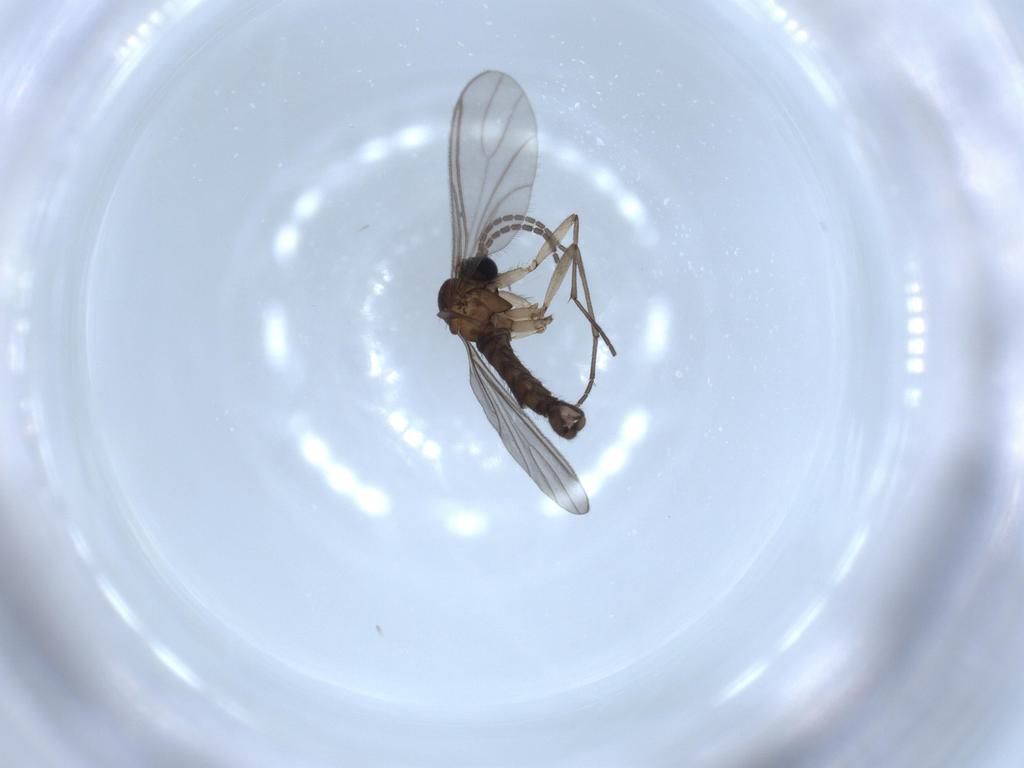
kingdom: Animalia
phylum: Arthropoda
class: Insecta
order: Diptera
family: Sciaridae
